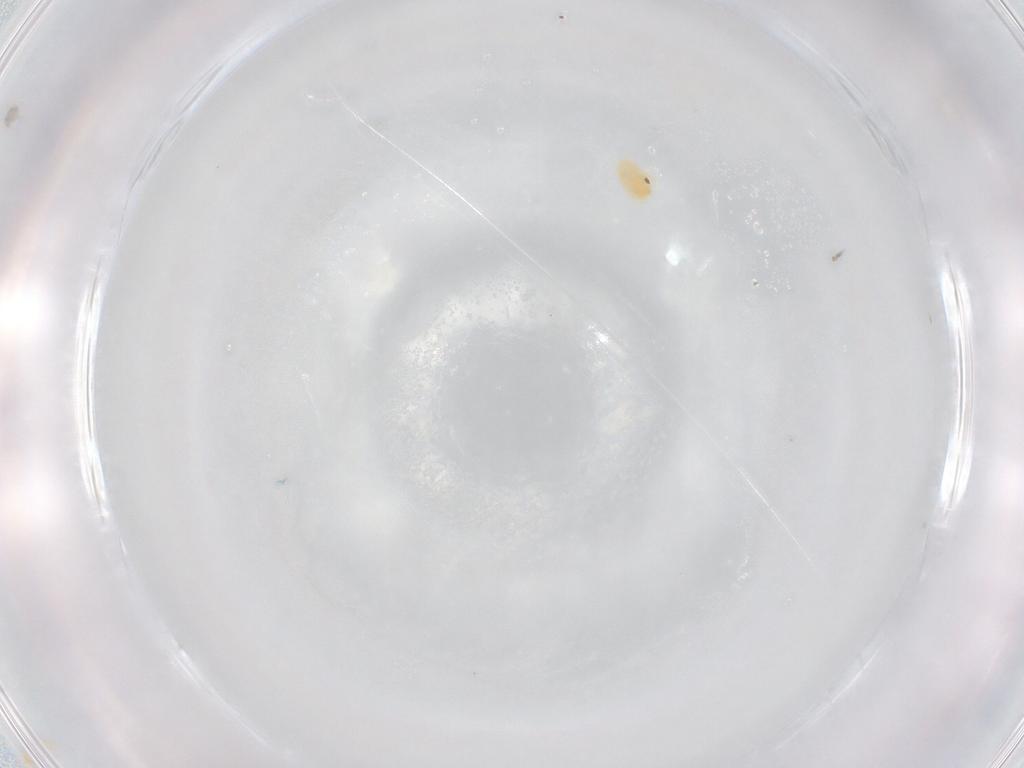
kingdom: Animalia
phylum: Arthropoda
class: Arachnida
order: Trombidiformes
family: Eupodidae
